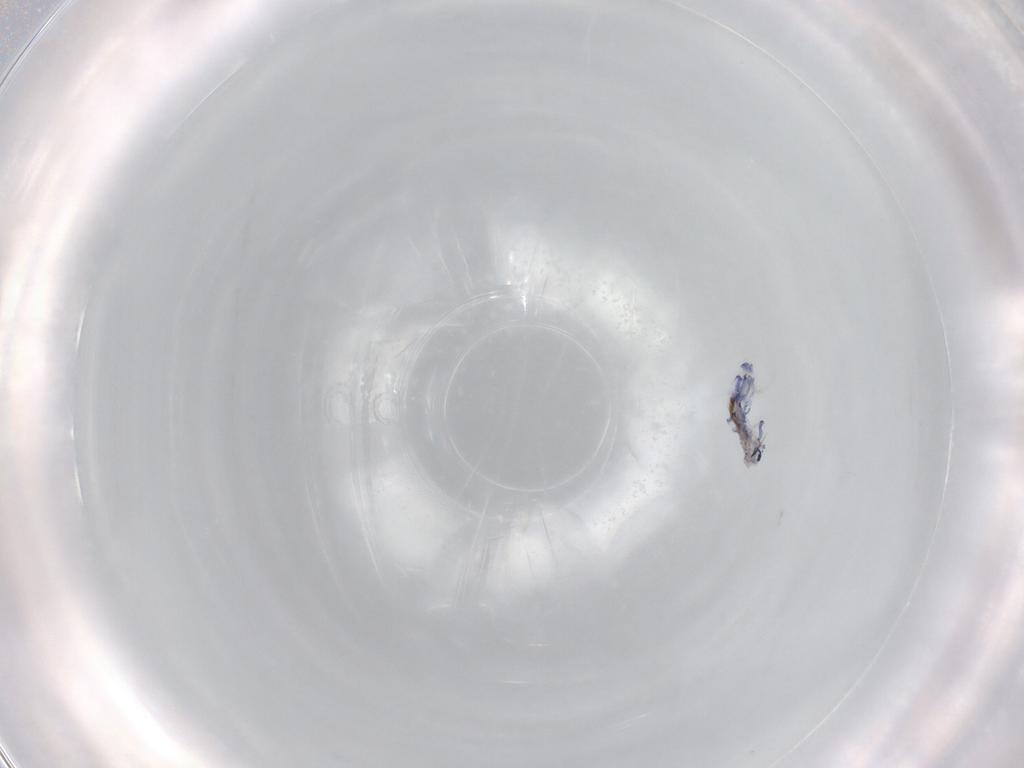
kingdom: Animalia
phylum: Arthropoda
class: Collembola
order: Entomobryomorpha
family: Entomobryidae
